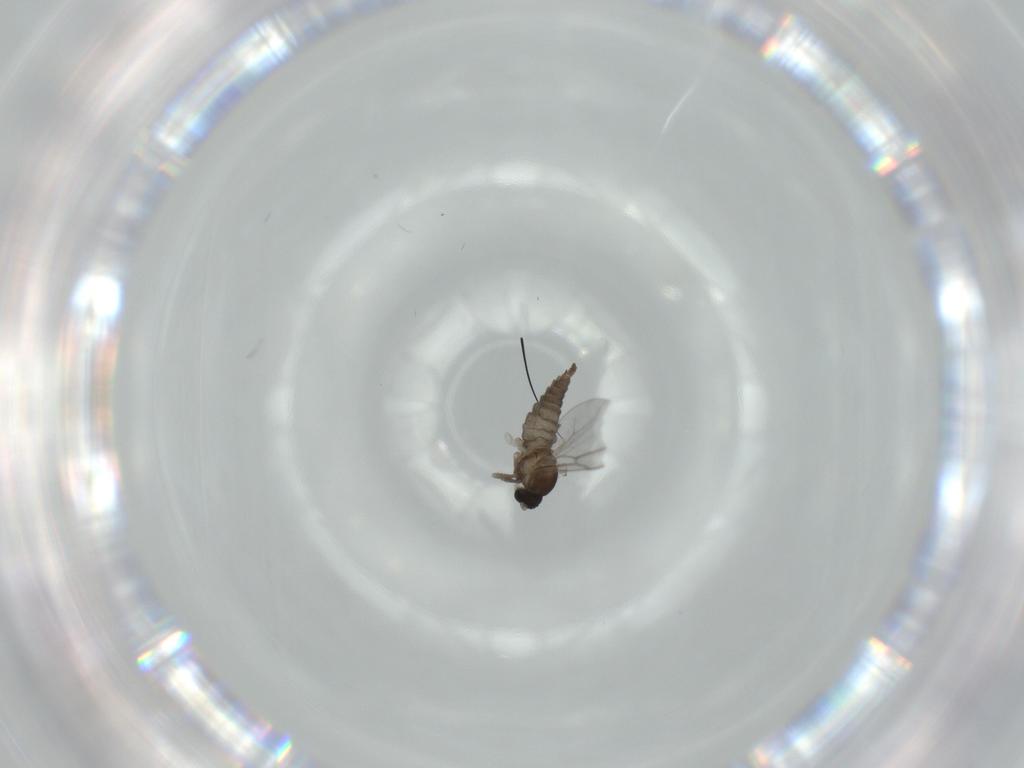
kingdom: Animalia
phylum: Arthropoda
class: Insecta
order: Diptera
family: Cecidomyiidae
